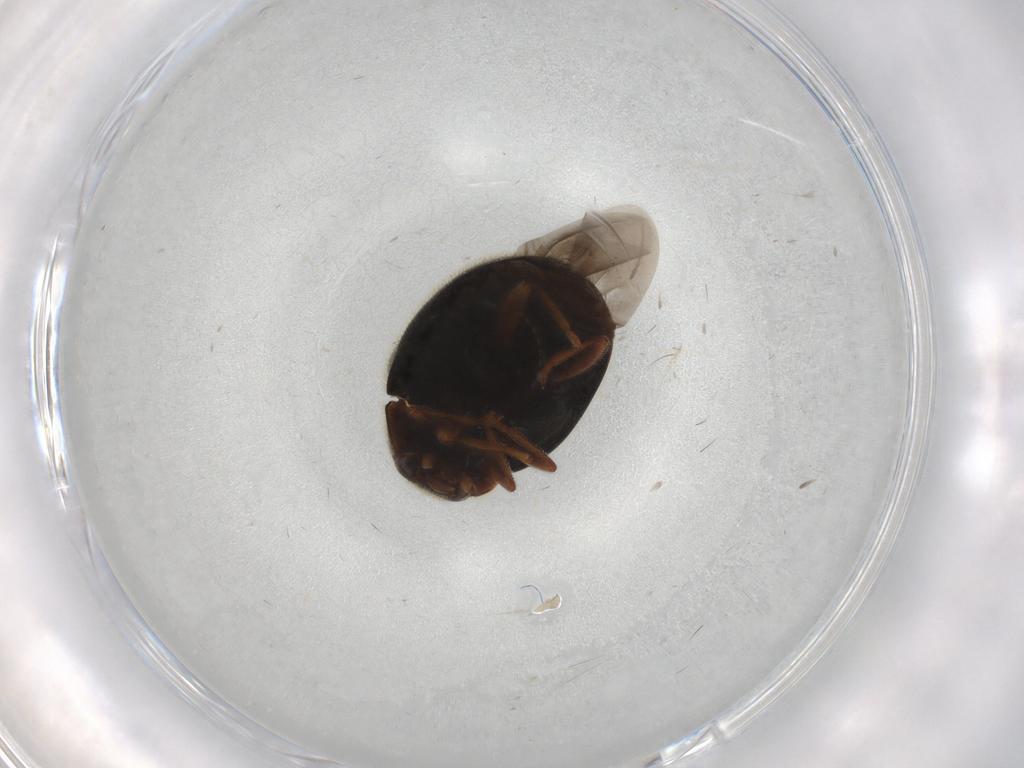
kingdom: Animalia
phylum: Arthropoda
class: Insecta
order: Coleoptera
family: Coccinellidae
